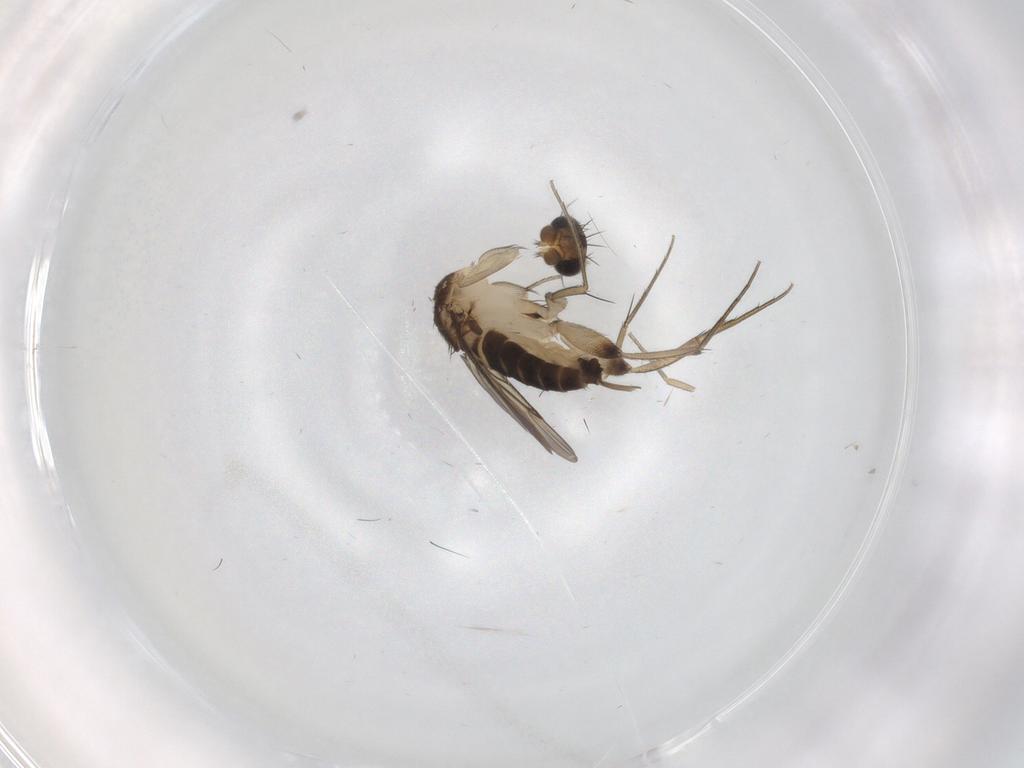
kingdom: Animalia
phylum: Arthropoda
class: Insecta
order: Diptera
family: Phoridae
